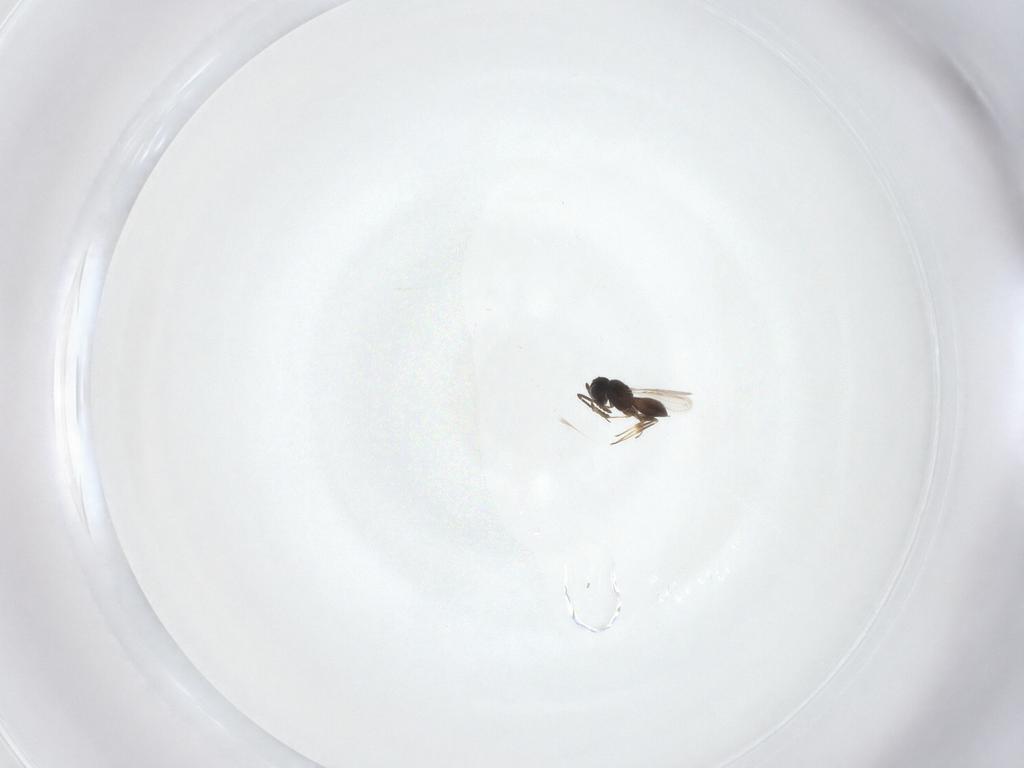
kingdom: Animalia
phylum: Arthropoda
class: Insecta
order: Hymenoptera
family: Scelionidae
